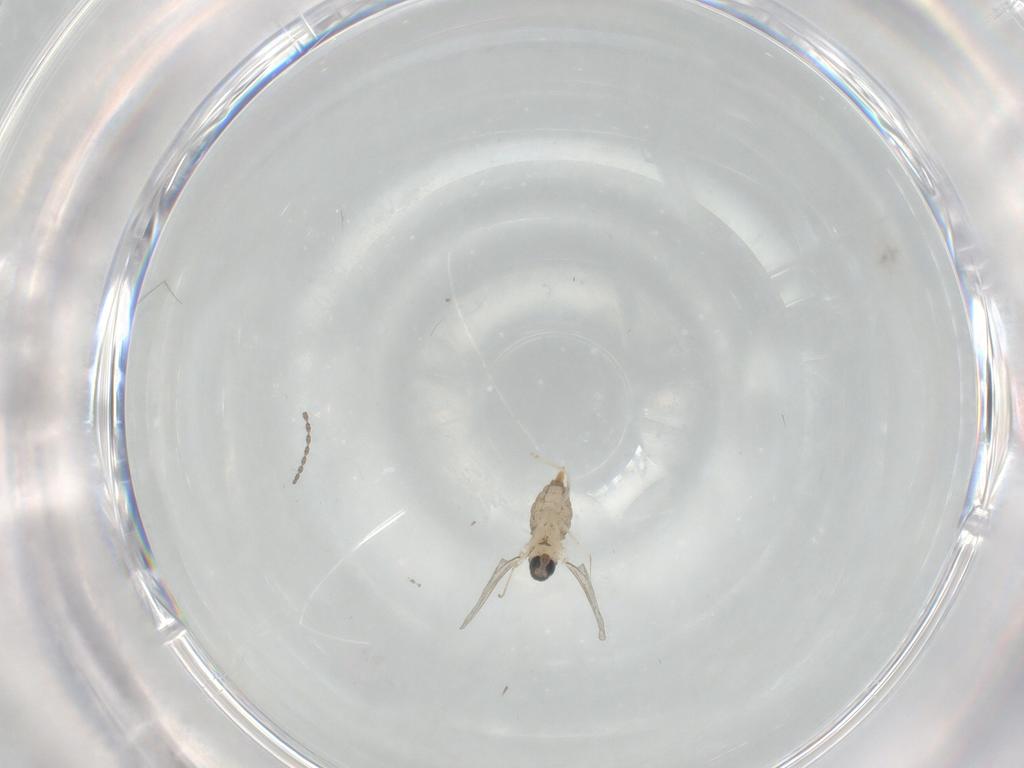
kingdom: Animalia
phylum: Arthropoda
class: Insecta
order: Diptera
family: Cecidomyiidae
